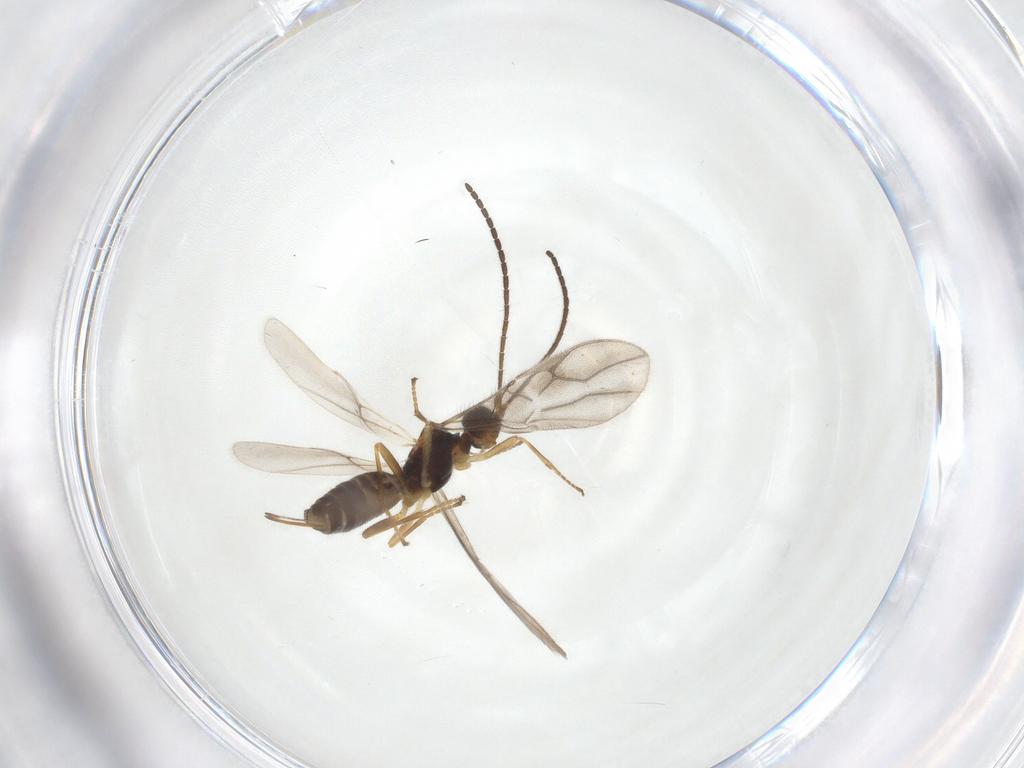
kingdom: Animalia
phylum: Arthropoda
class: Insecta
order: Hymenoptera
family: Braconidae
